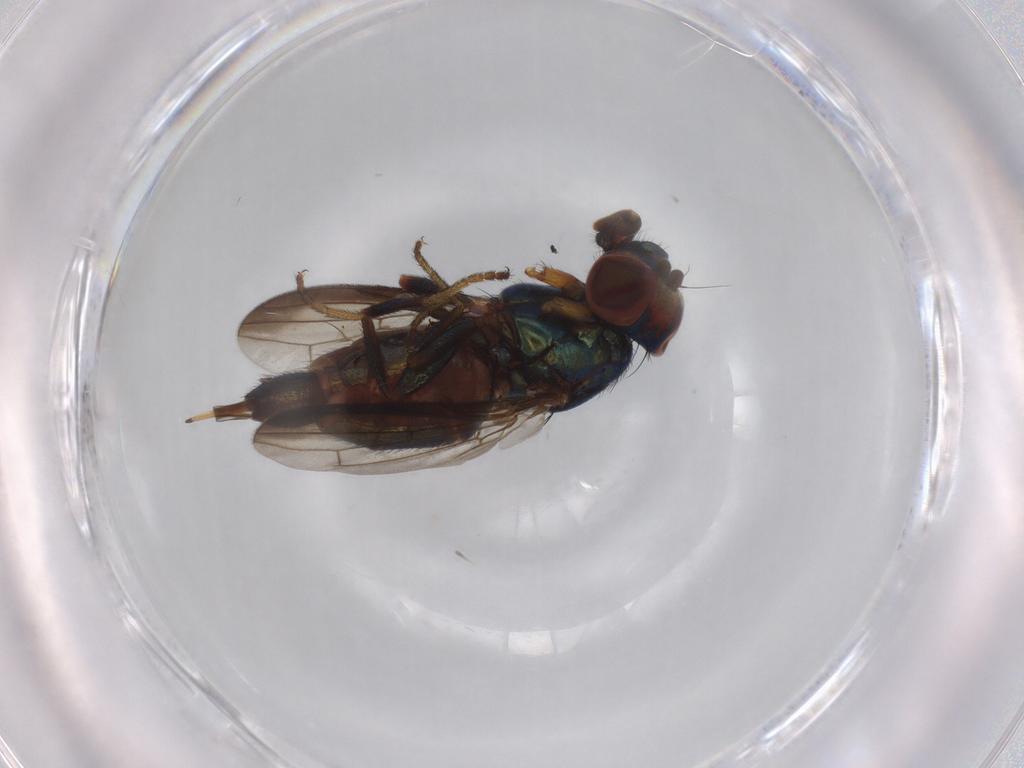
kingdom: Animalia
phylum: Arthropoda
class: Insecta
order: Diptera
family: Ulidiidae
